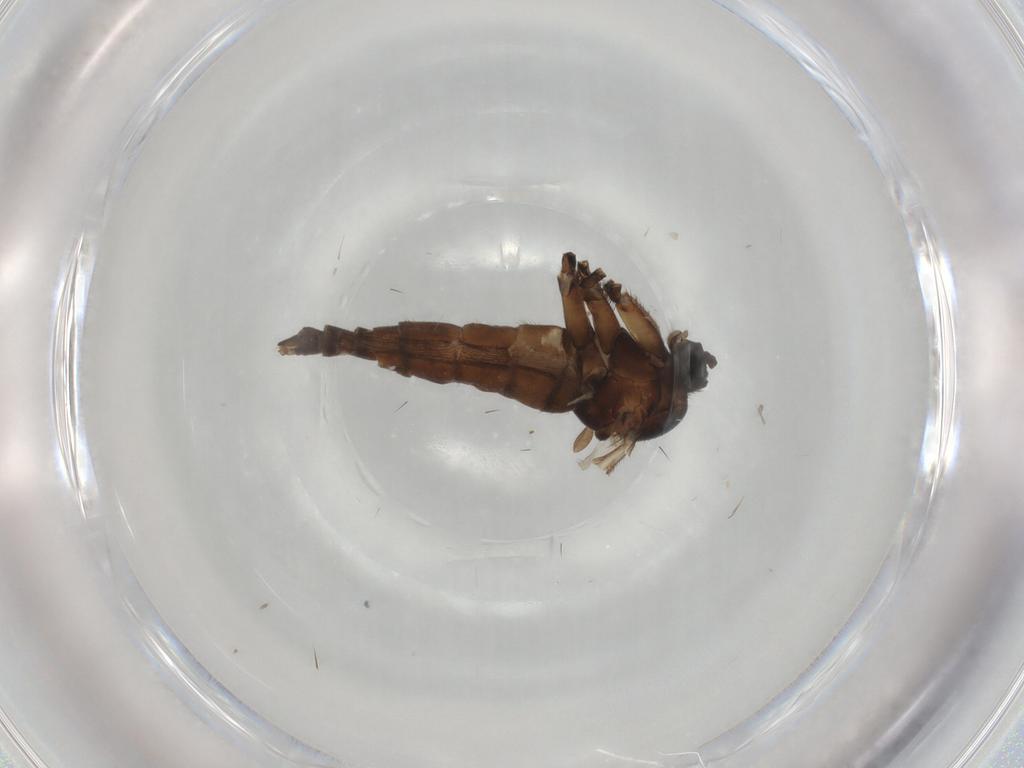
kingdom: Animalia
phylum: Arthropoda
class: Insecta
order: Diptera
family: Sciaridae
